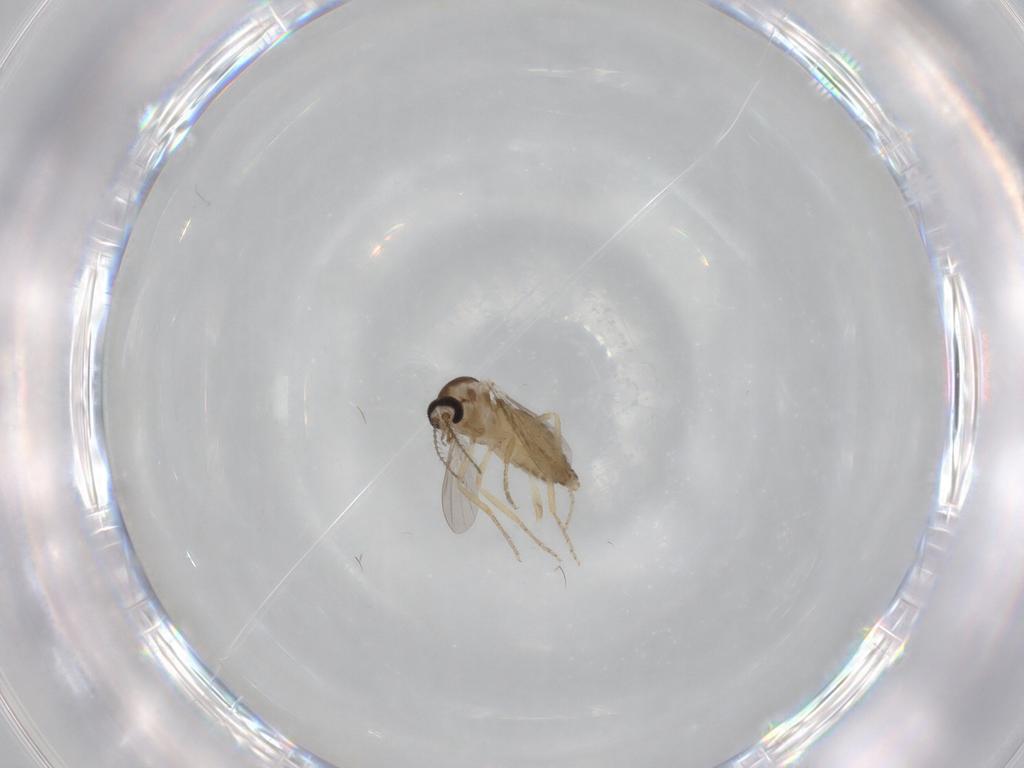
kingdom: Animalia
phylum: Arthropoda
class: Insecta
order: Diptera
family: Ceratopogonidae
